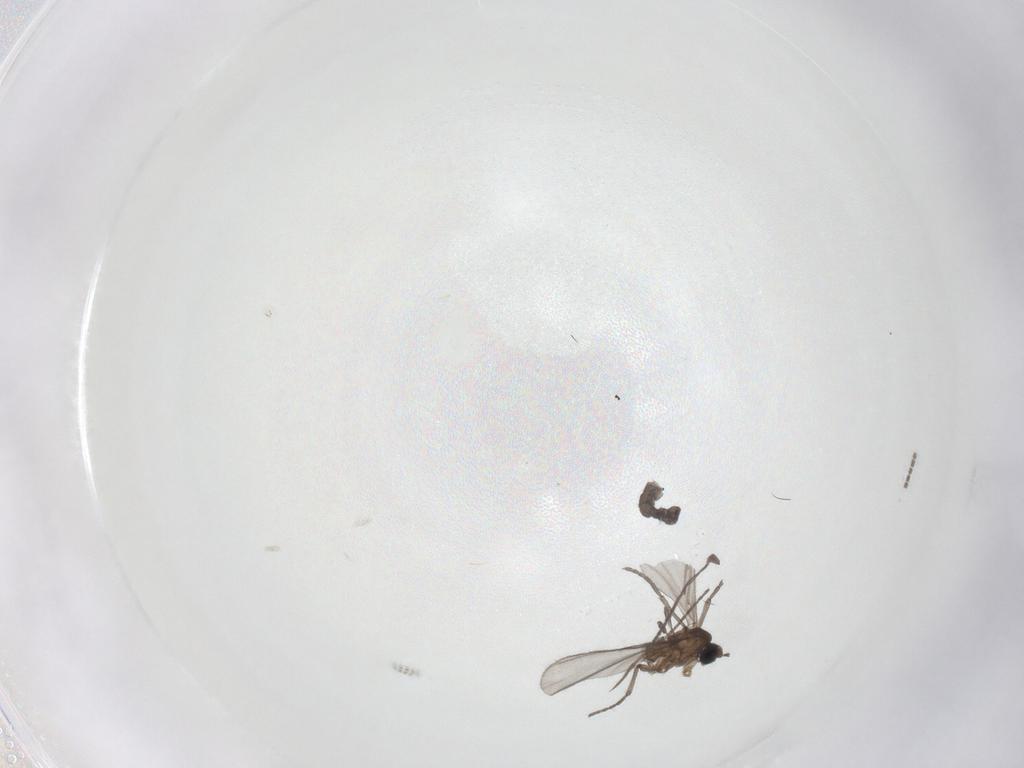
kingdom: Animalia
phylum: Arthropoda
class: Insecta
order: Diptera
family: Sciaridae
